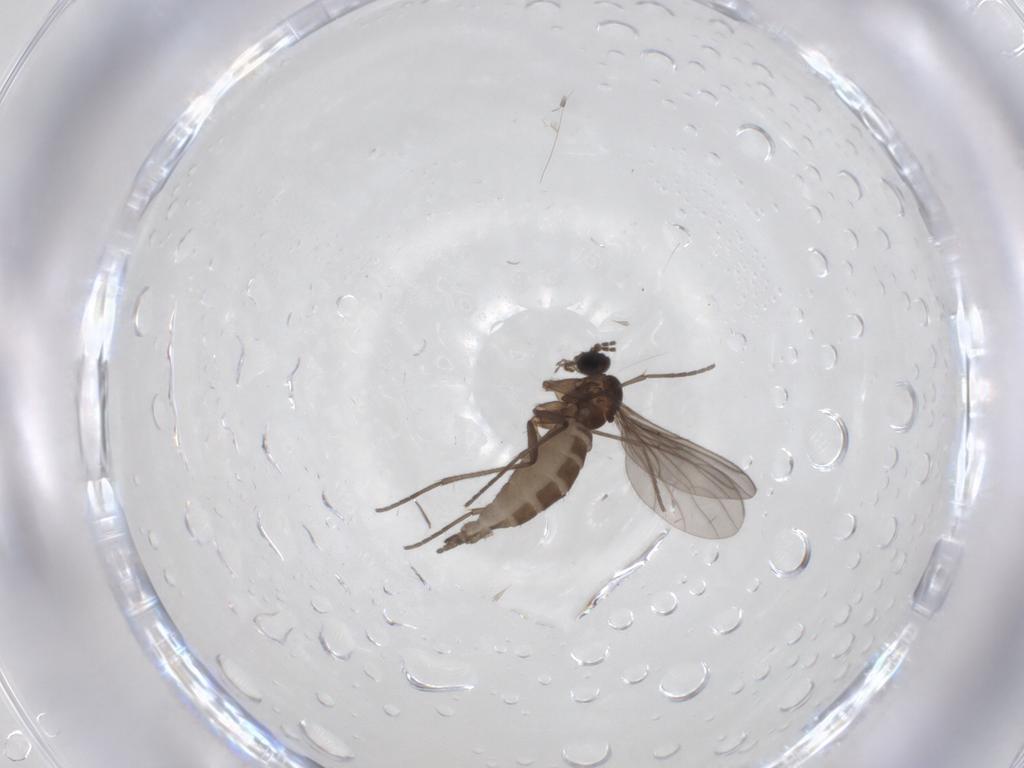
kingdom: Animalia
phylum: Arthropoda
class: Insecta
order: Diptera
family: Sciaridae
